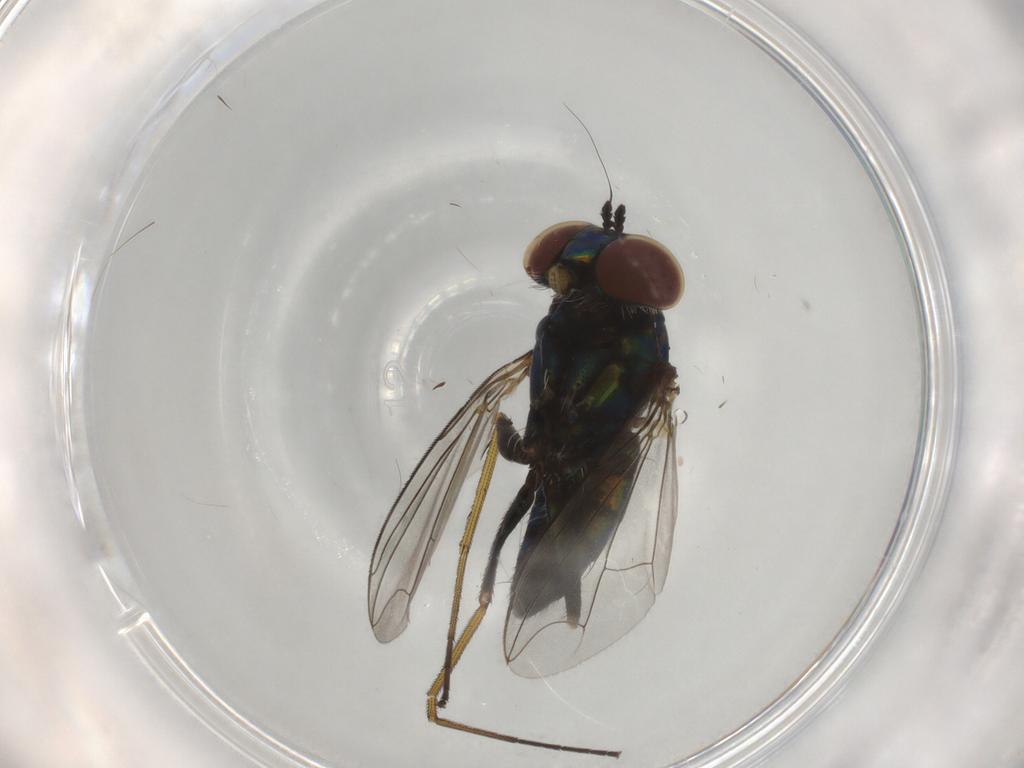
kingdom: Animalia
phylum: Arthropoda
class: Insecta
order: Diptera
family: Dolichopodidae
